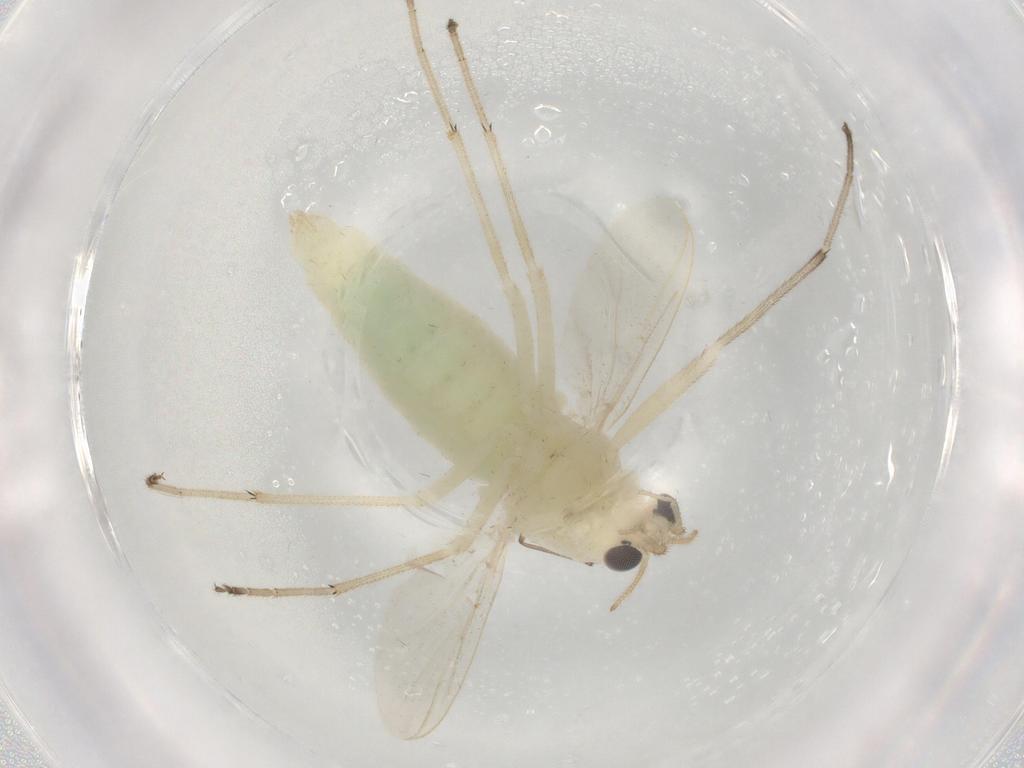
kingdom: Animalia
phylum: Arthropoda
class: Insecta
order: Diptera
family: Chironomidae
